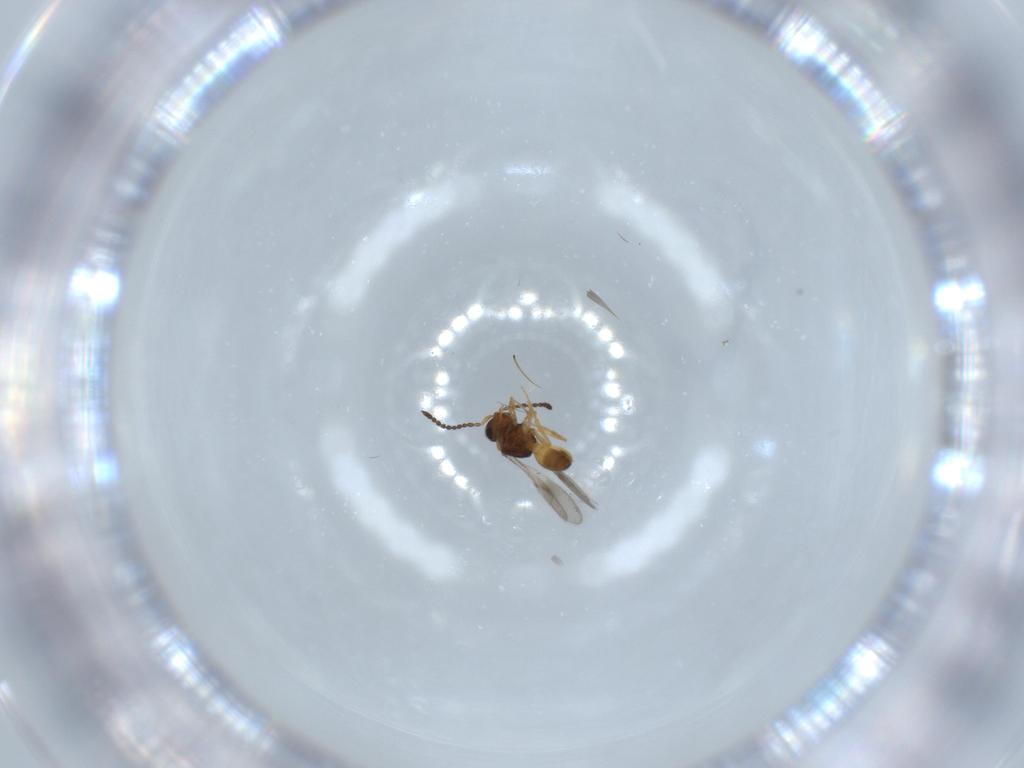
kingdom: Animalia
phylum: Arthropoda
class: Insecta
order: Hymenoptera
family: Scelionidae
